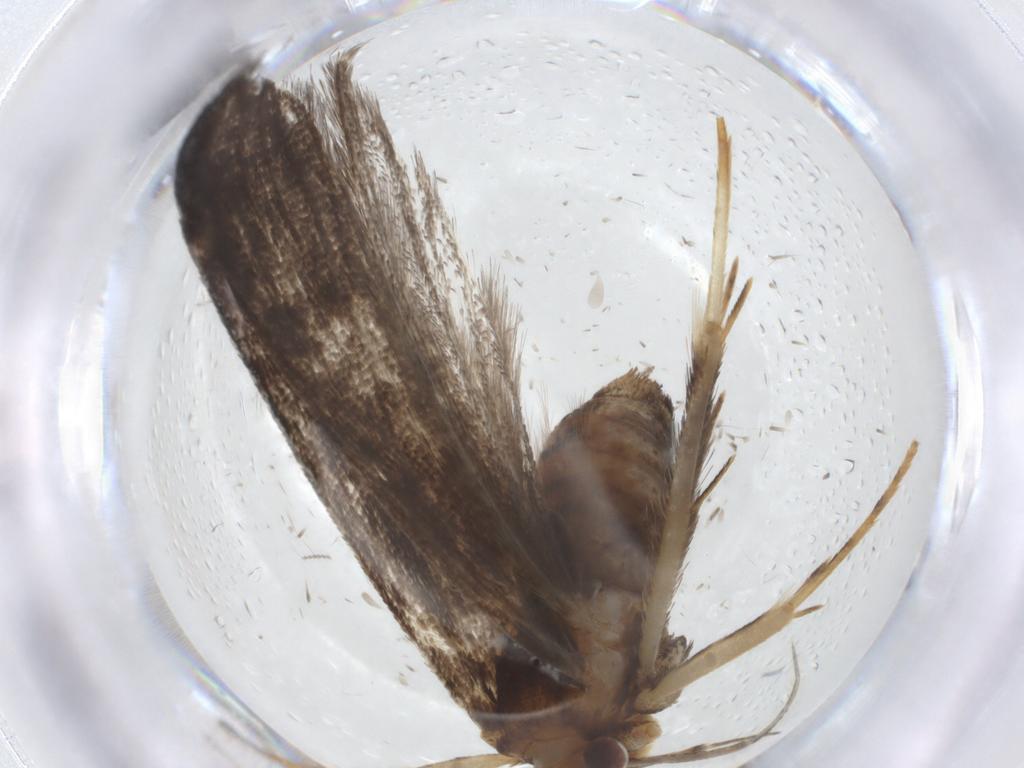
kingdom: Animalia
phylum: Arthropoda
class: Insecta
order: Lepidoptera
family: Lecithoceridae
